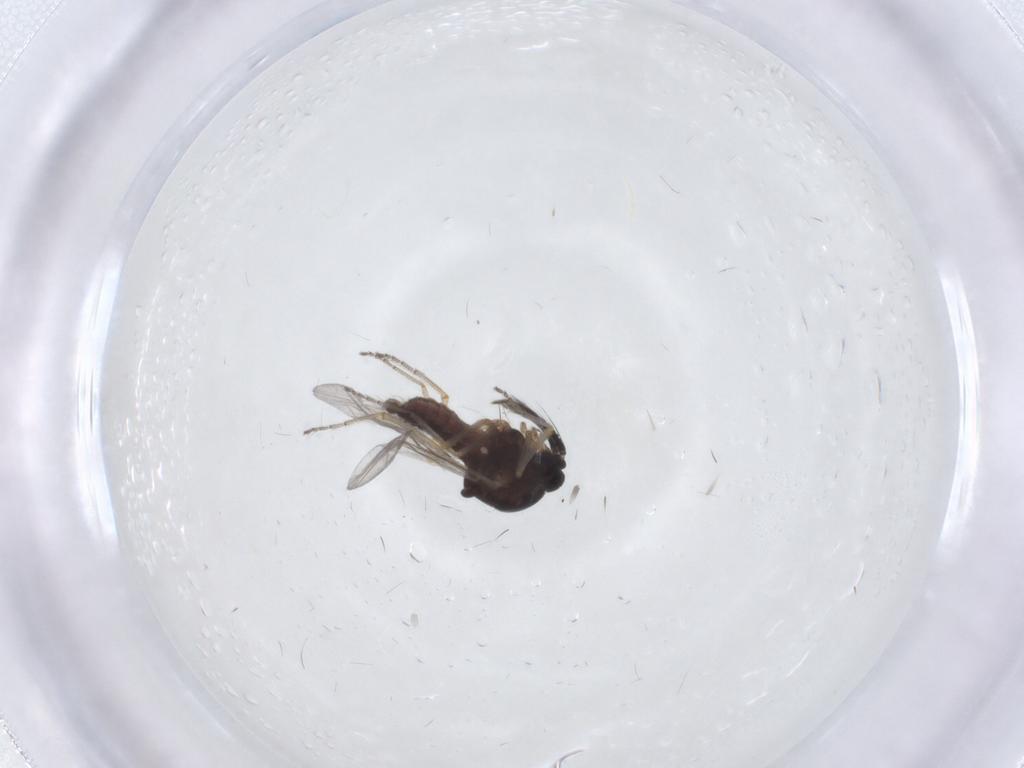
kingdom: Animalia
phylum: Arthropoda
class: Insecta
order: Diptera
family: Ceratopogonidae
